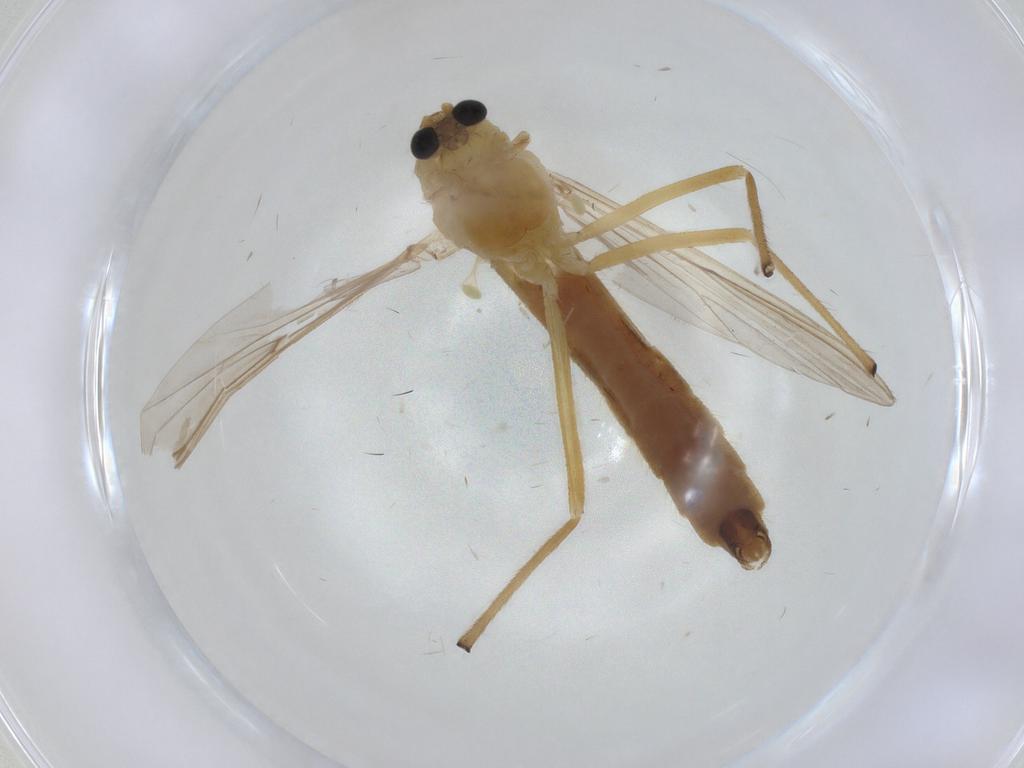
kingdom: Animalia
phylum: Arthropoda
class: Insecta
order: Diptera
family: Chironomidae
